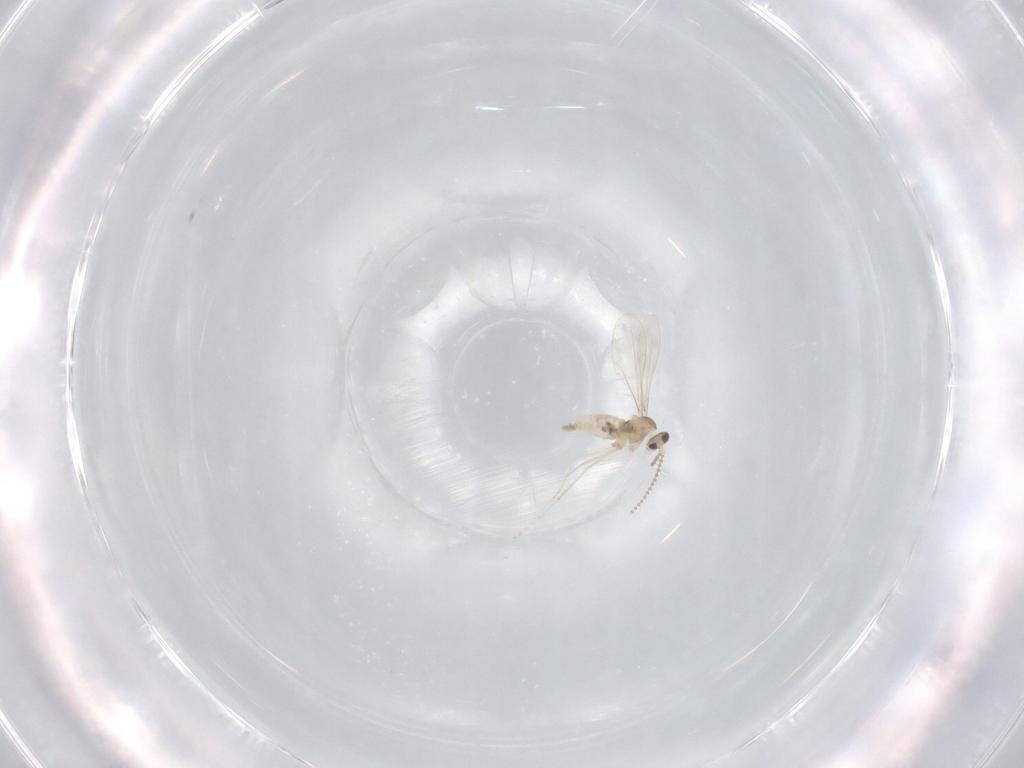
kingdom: Animalia
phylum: Arthropoda
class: Insecta
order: Diptera
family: Cecidomyiidae
